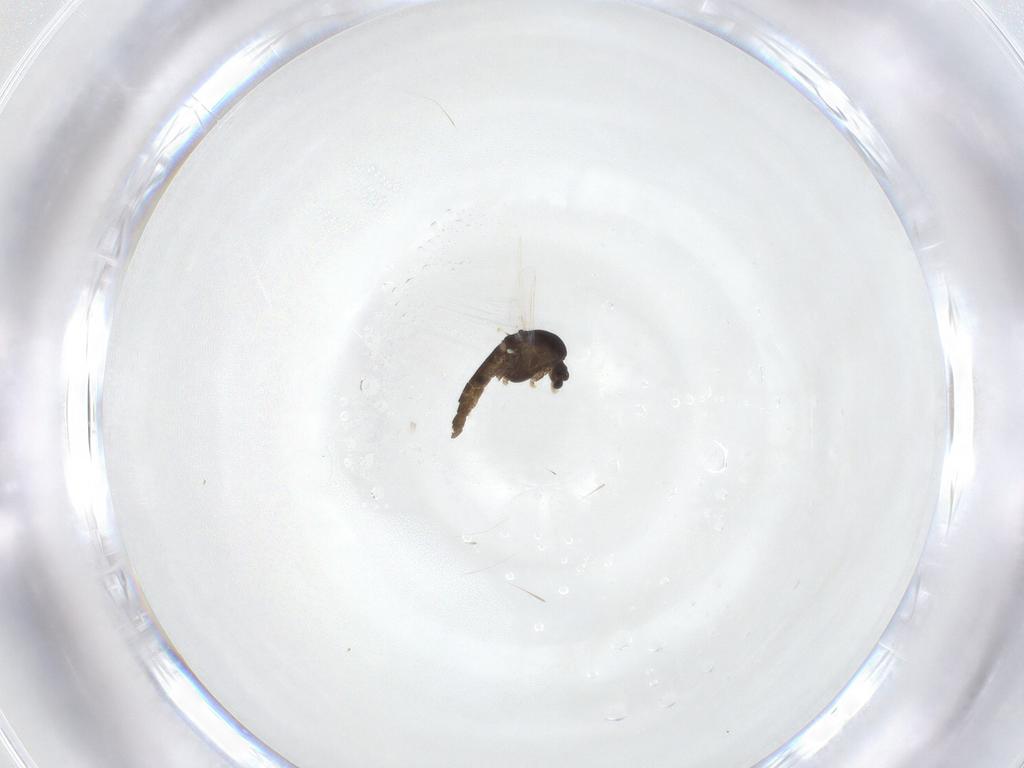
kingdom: Animalia
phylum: Arthropoda
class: Insecta
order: Diptera
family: Chironomidae
